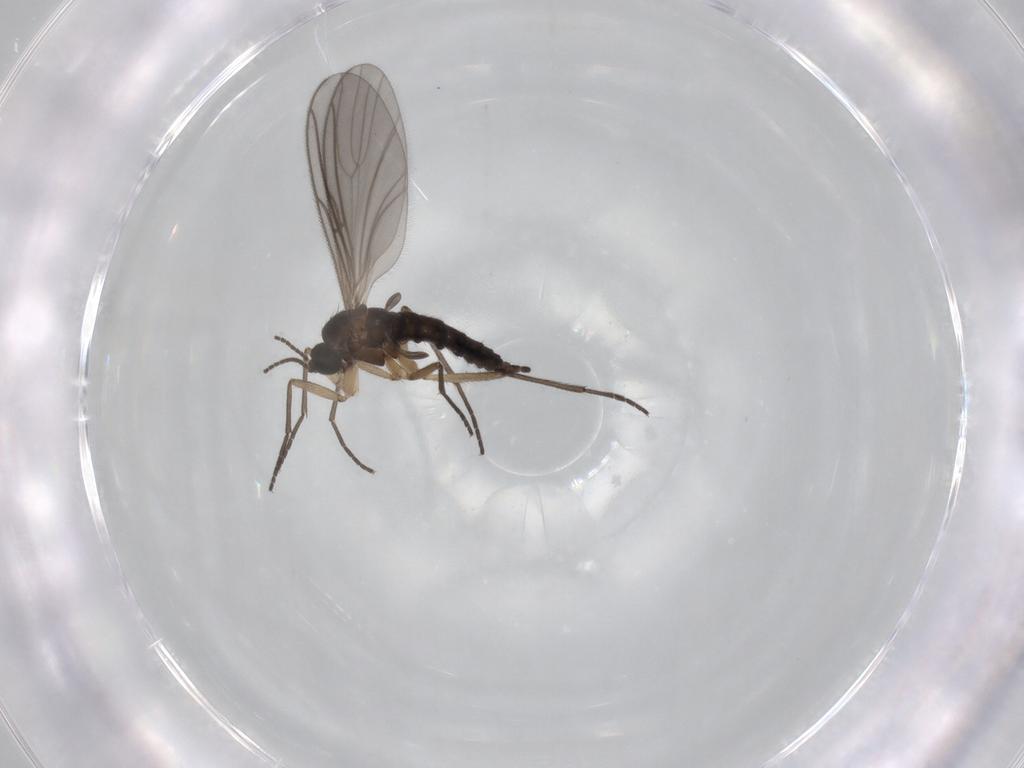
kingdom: Animalia
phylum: Arthropoda
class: Insecta
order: Diptera
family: Sciaridae
